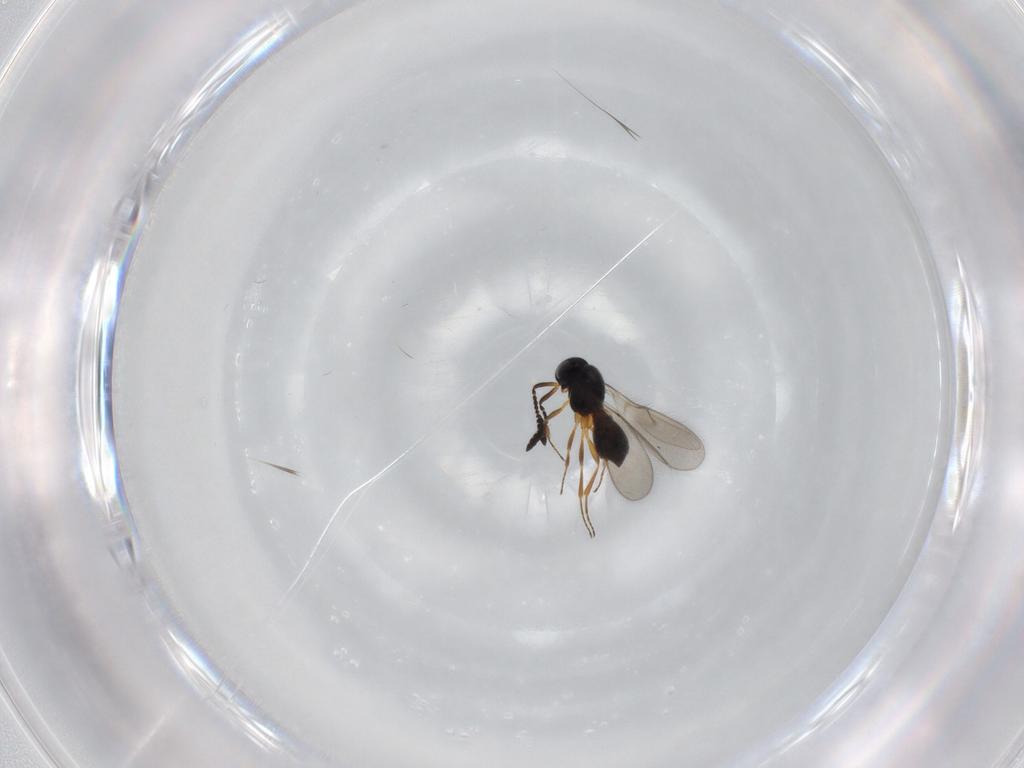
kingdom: Animalia
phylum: Arthropoda
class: Insecta
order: Hymenoptera
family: Scelionidae
